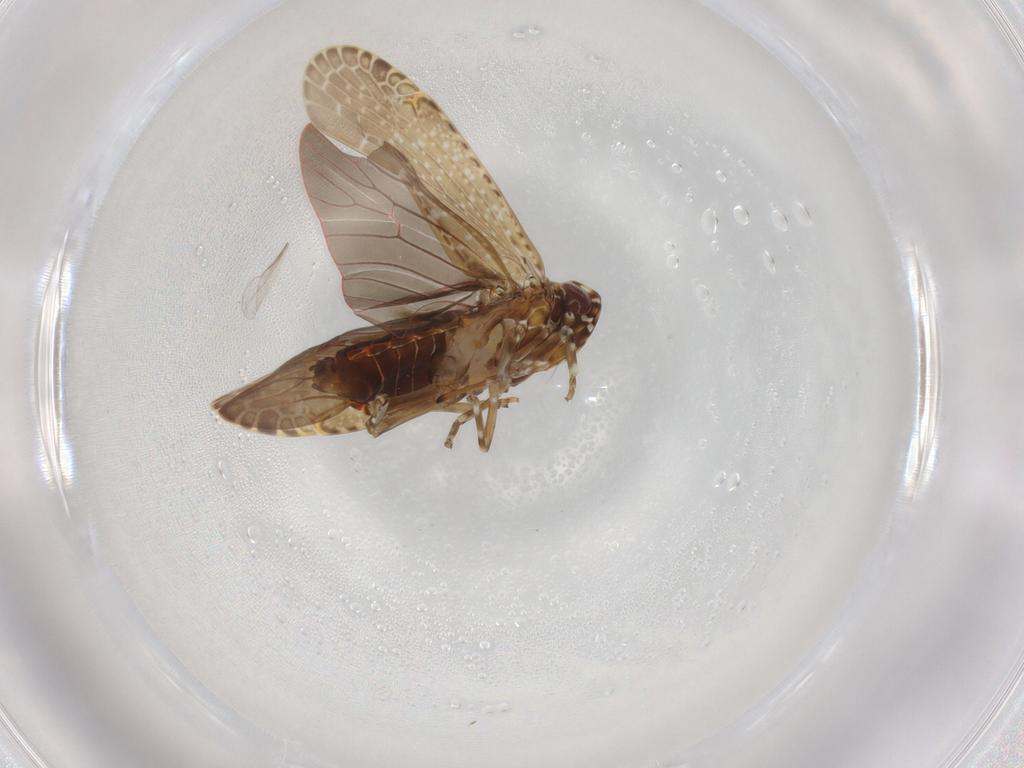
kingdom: Animalia
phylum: Arthropoda
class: Insecta
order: Hemiptera
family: Achilidae
